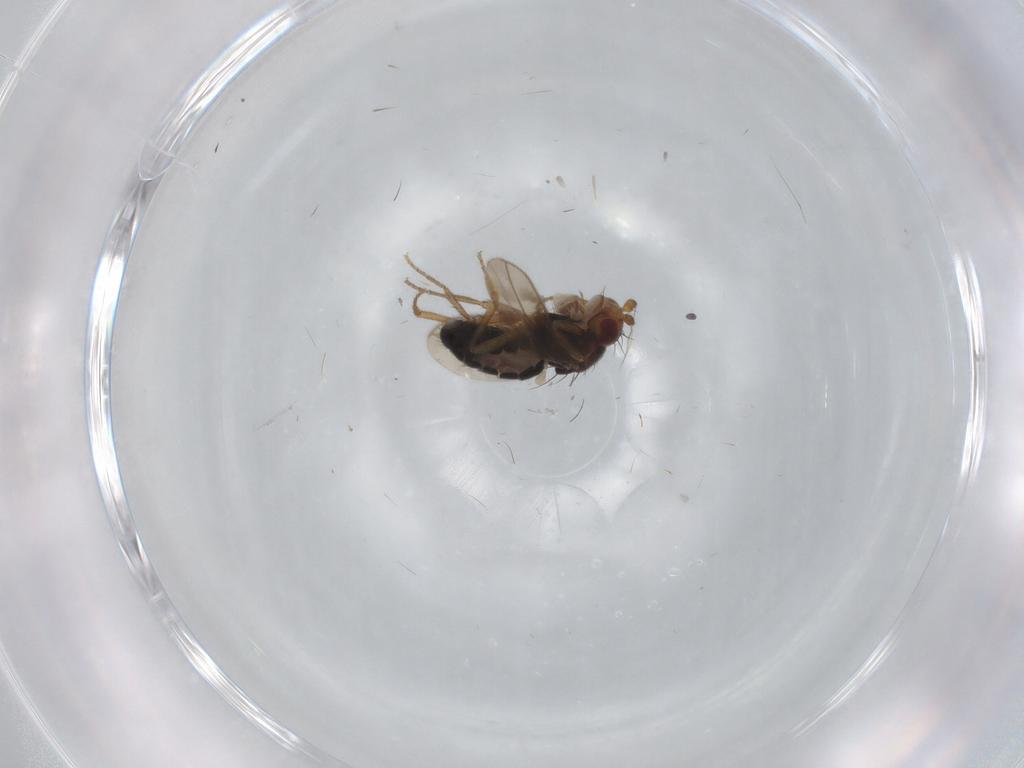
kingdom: Animalia
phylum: Arthropoda
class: Insecta
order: Diptera
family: Sphaeroceridae
